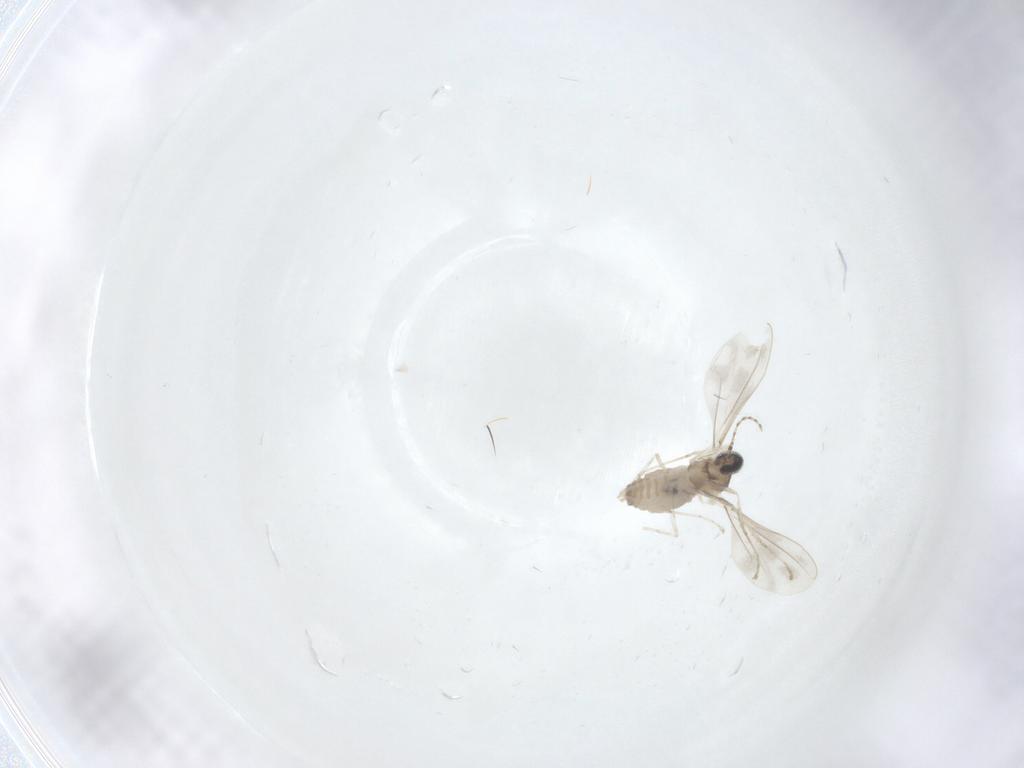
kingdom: Animalia
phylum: Arthropoda
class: Insecta
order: Diptera
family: Cecidomyiidae
